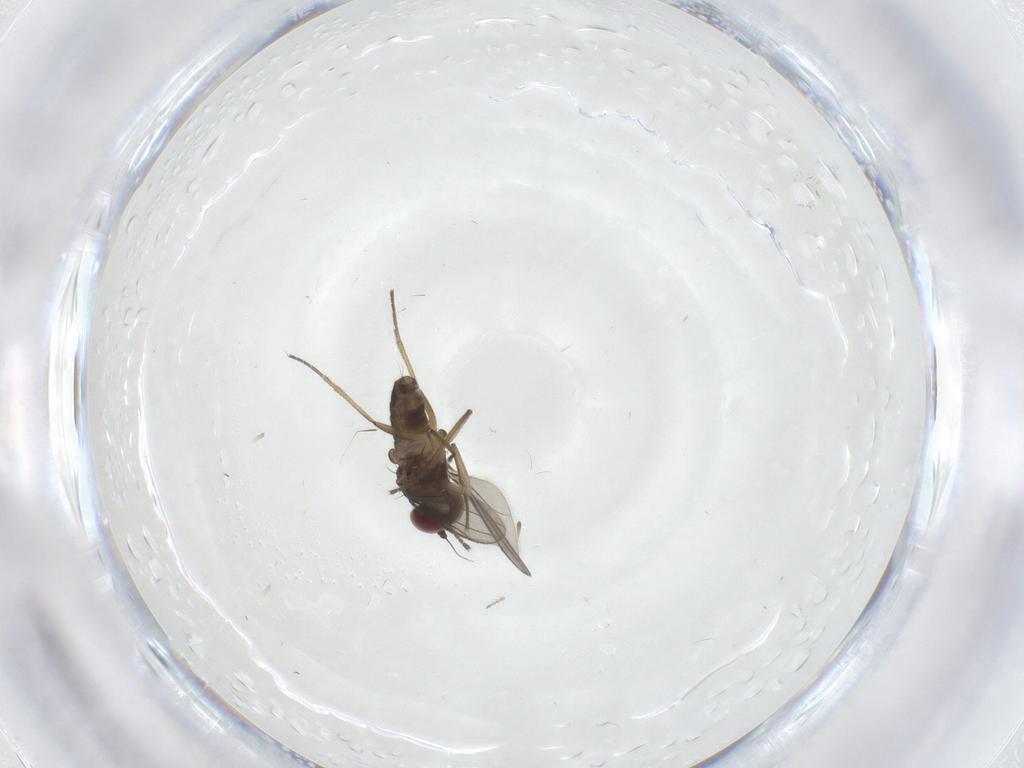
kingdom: Animalia
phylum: Arthropoda
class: Insecta
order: Diptera
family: Dolichopodidae
